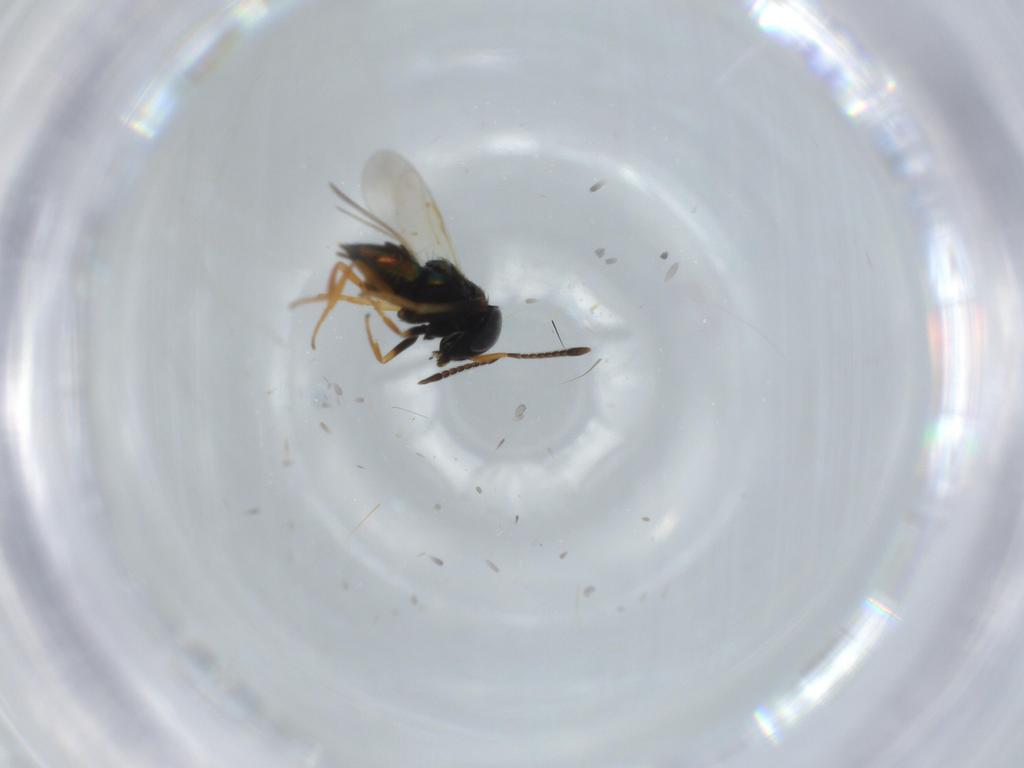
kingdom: Animalia
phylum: Arthropoda
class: Insecta
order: Hymenoptera
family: Encyrtidae
